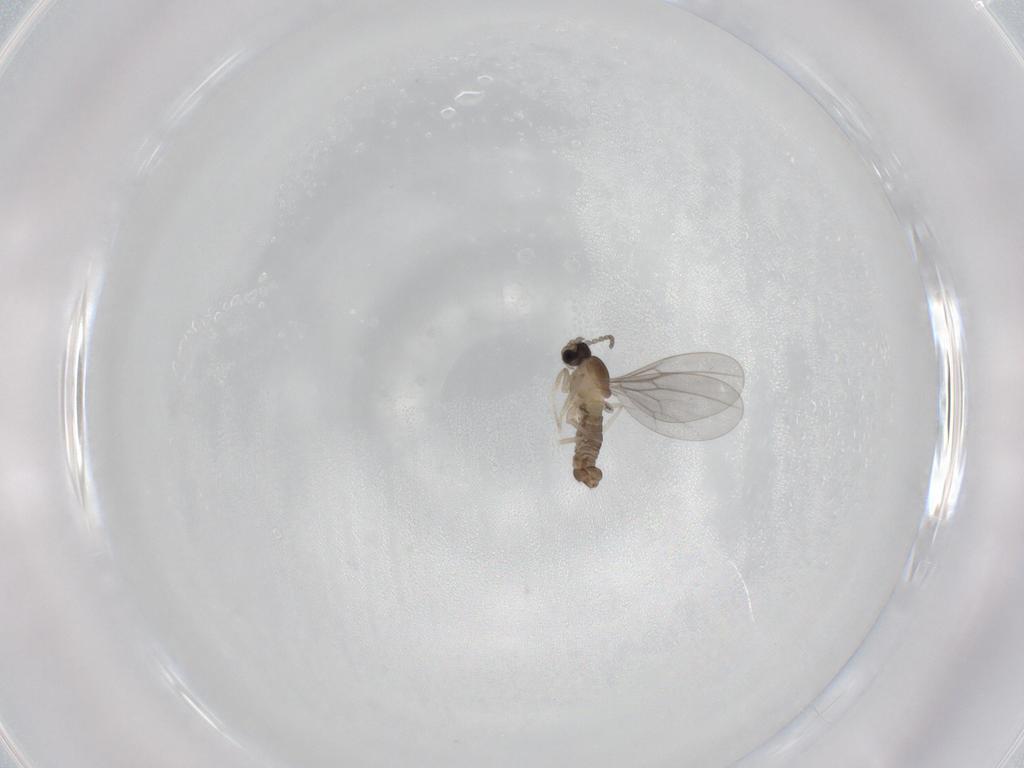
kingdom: Animalia
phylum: Arthropoda
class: Insecta
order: Diptera
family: Cecidomyiidae
